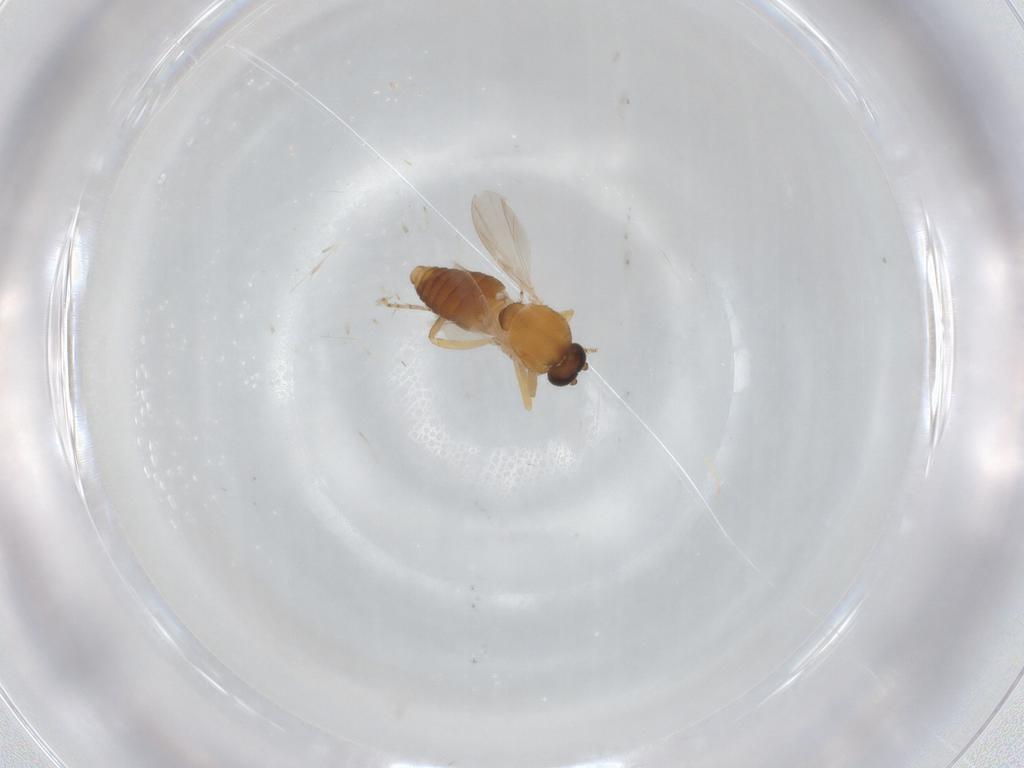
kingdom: Animalia
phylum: Arthropoda
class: Insecta
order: Diptera
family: Ceratopogonidae
